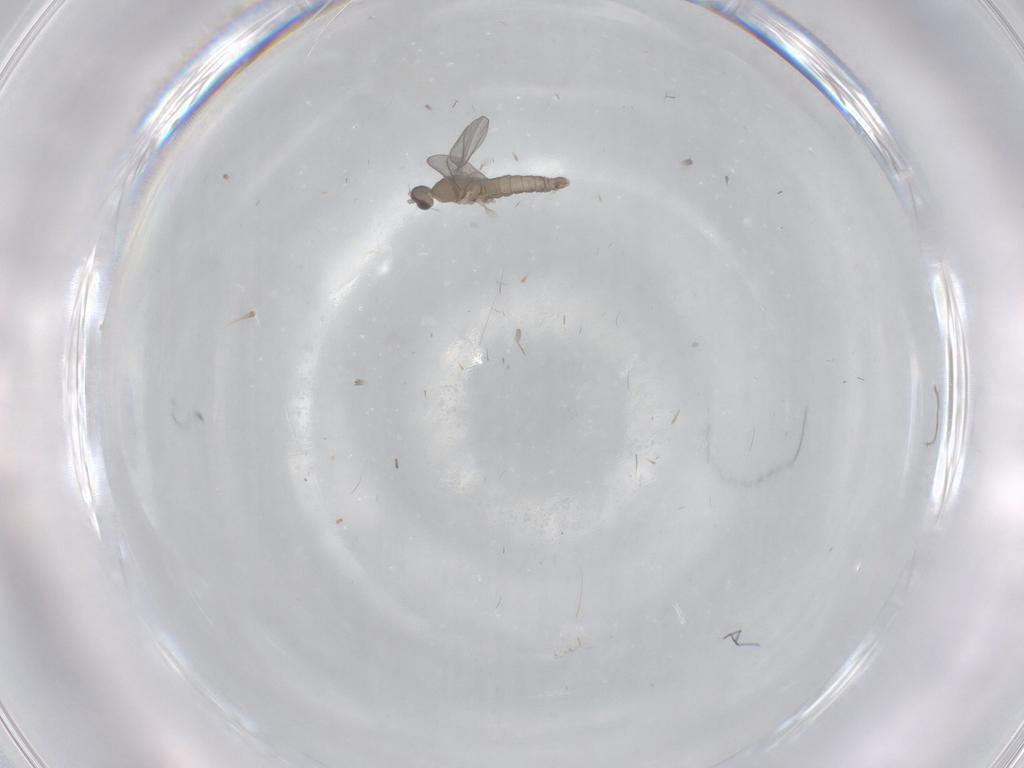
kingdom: Animalia
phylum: Arthropoda
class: Insecta
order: Diptera
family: Cecidomyiidae
